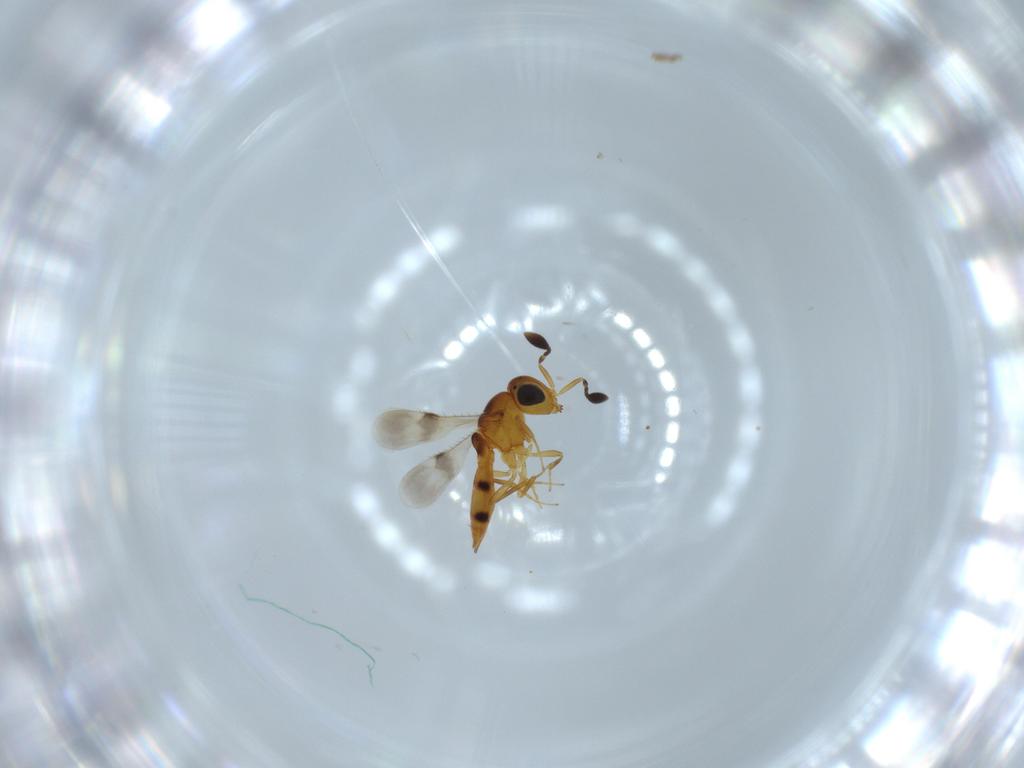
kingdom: Animalia
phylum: Arthropoda
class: Insecta
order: Hymenoptera
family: Scelionidae
